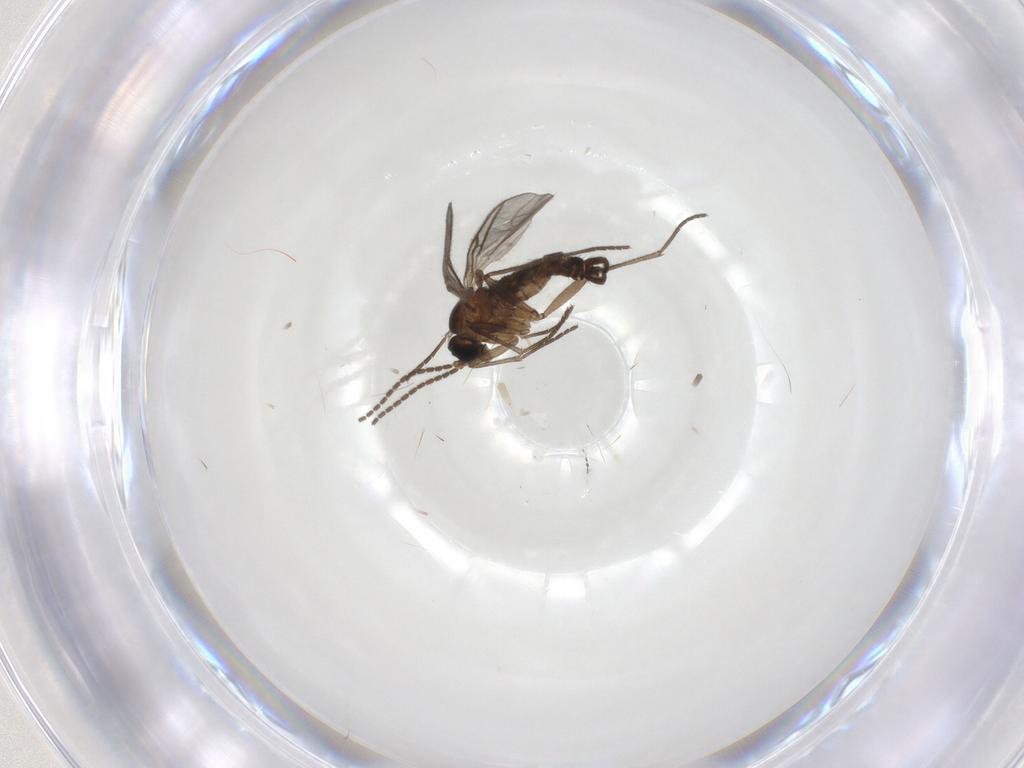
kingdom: Animalia
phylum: Arthropoda
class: Insecta
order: Diptera
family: Sciaridae
